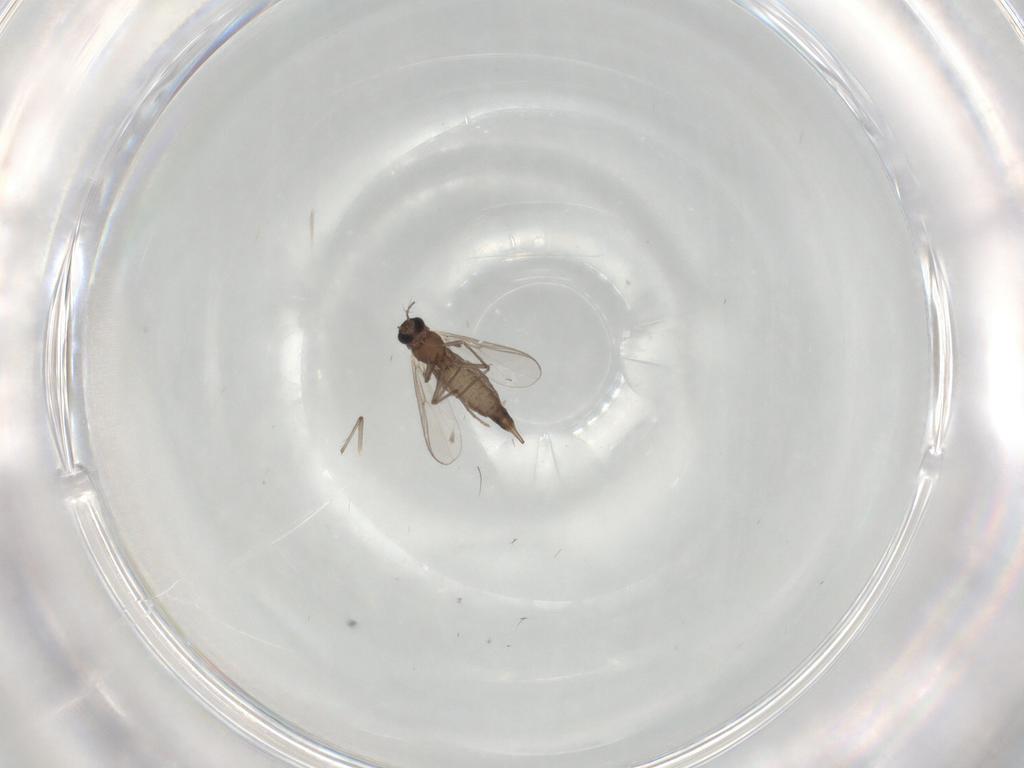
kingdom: Animalia
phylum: Arthropoda
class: Insecta
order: Diptera
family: Chironomidae
